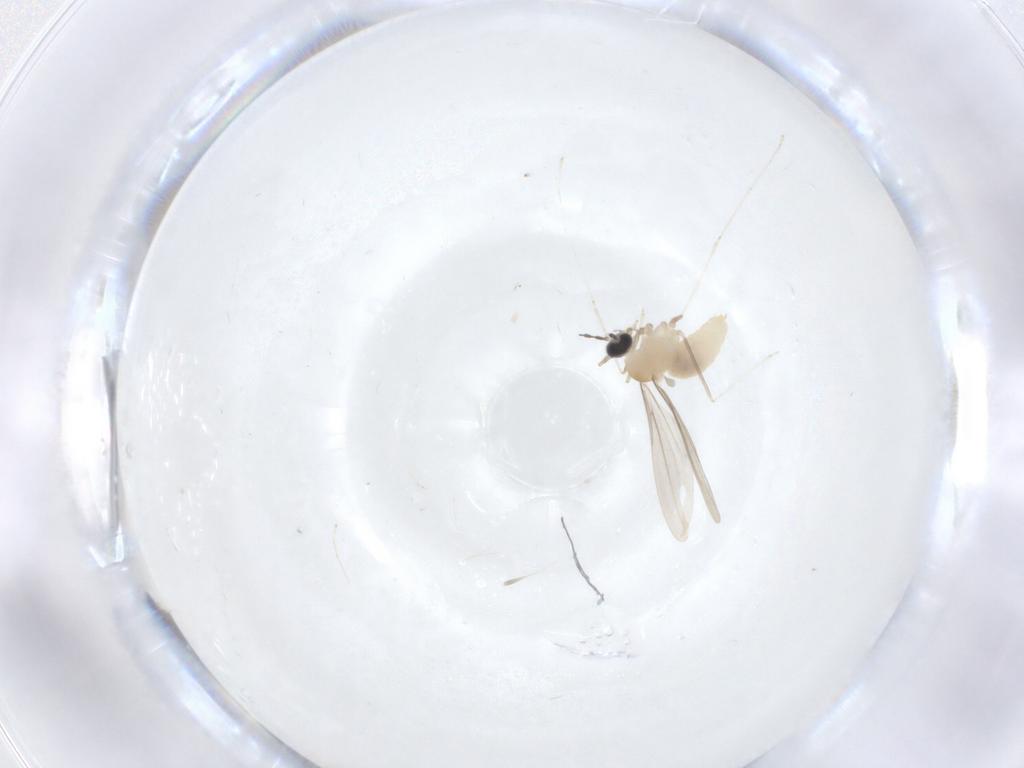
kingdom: Animalia
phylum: Arthropoda
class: Insecta
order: Diptera
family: Cecidomyiidae
